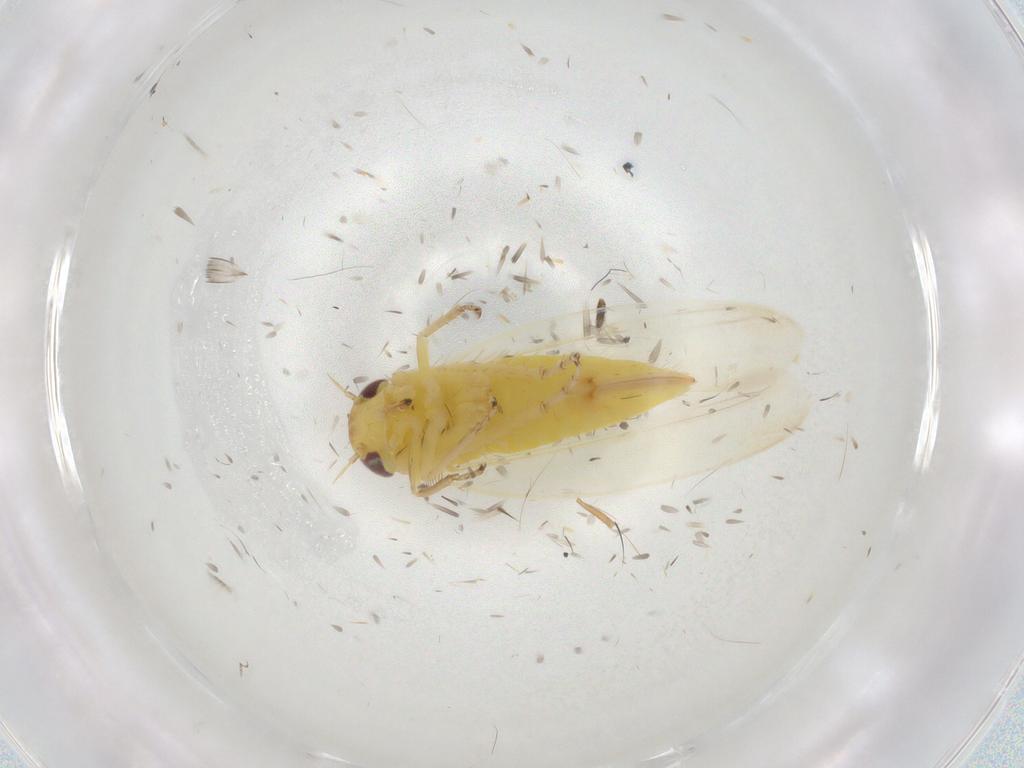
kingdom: Animalia
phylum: Arthropoda
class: Insecta
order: Hemiptera
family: Cicadellidae
